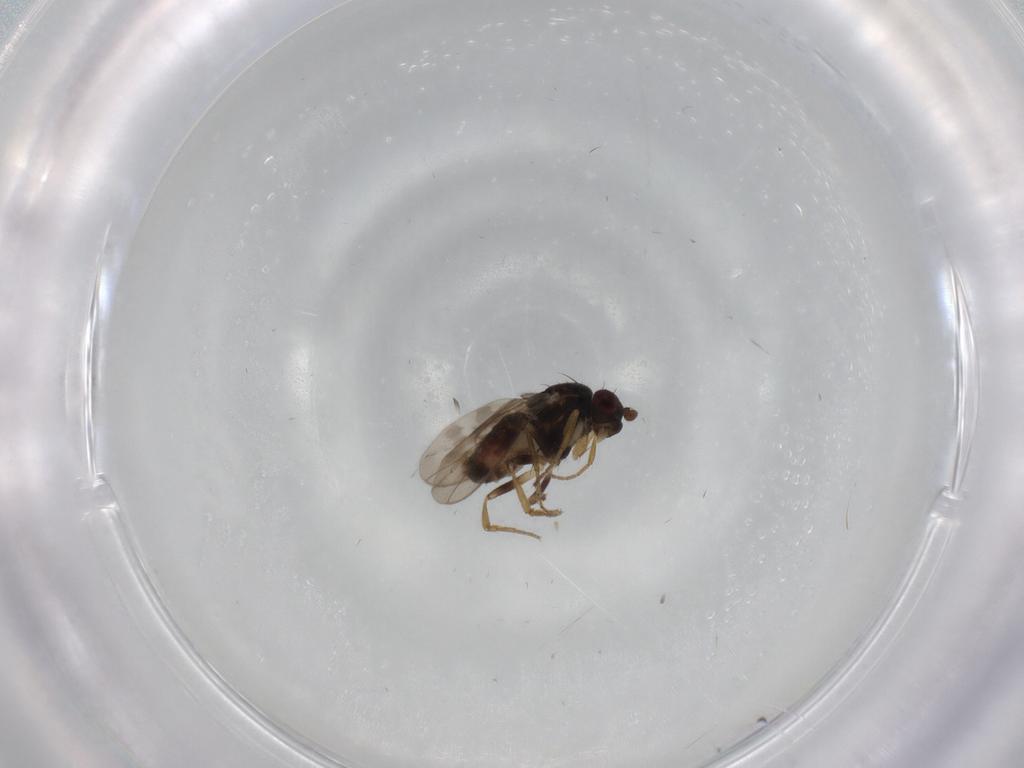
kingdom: Animalia
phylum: Arthropoda
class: Insecta
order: Diptera
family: Sphaeroceridae
